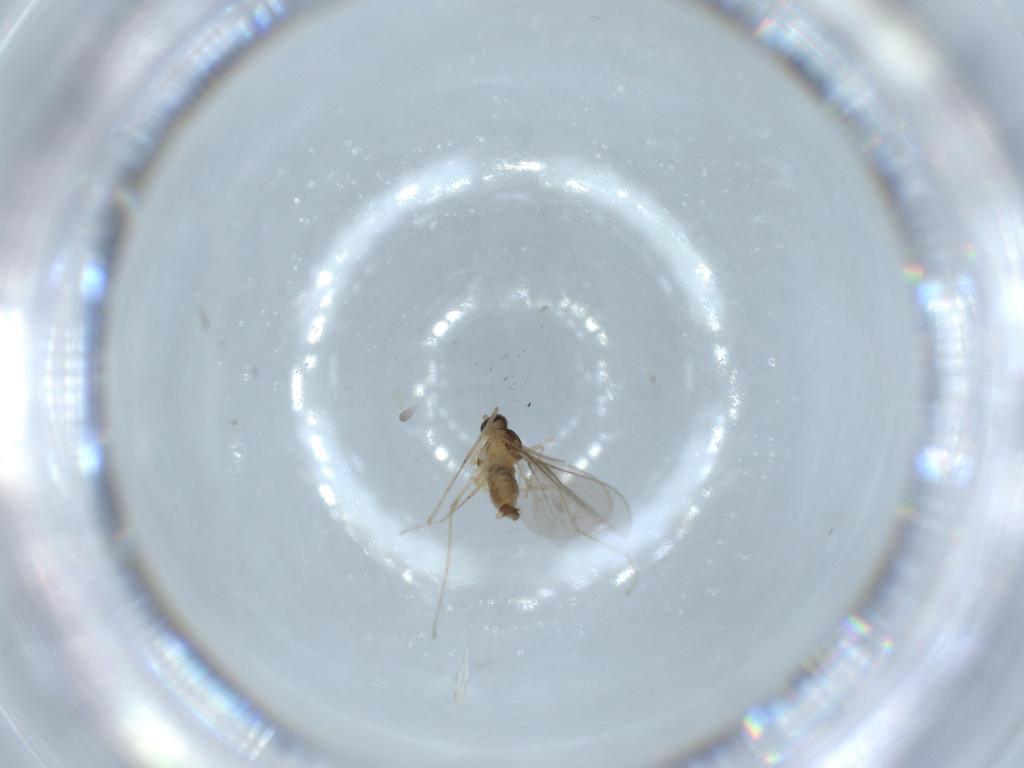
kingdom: Animalia
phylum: Arthropoda
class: Insecta
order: Diptera
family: Cecidomyiidae
